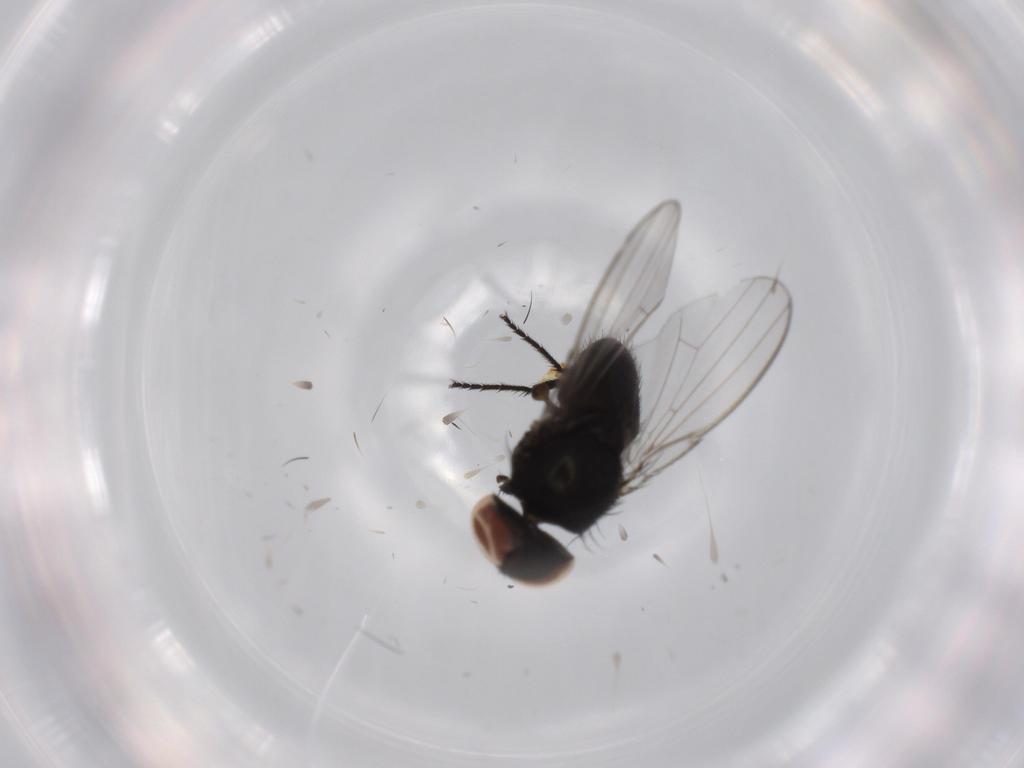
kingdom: Animalia
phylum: Arthropoda
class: Insecta
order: Diptera
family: Milichiidae
